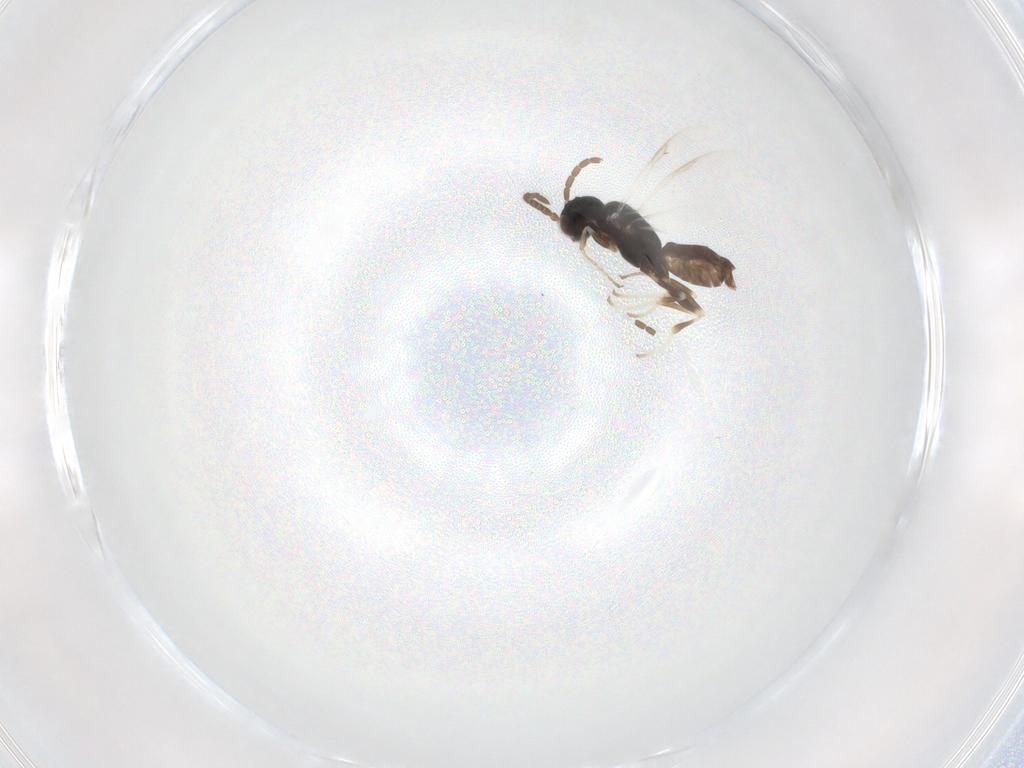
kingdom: Animalia
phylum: Arthropoda
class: Insecta
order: Hymenoptera
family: Dryinidae
